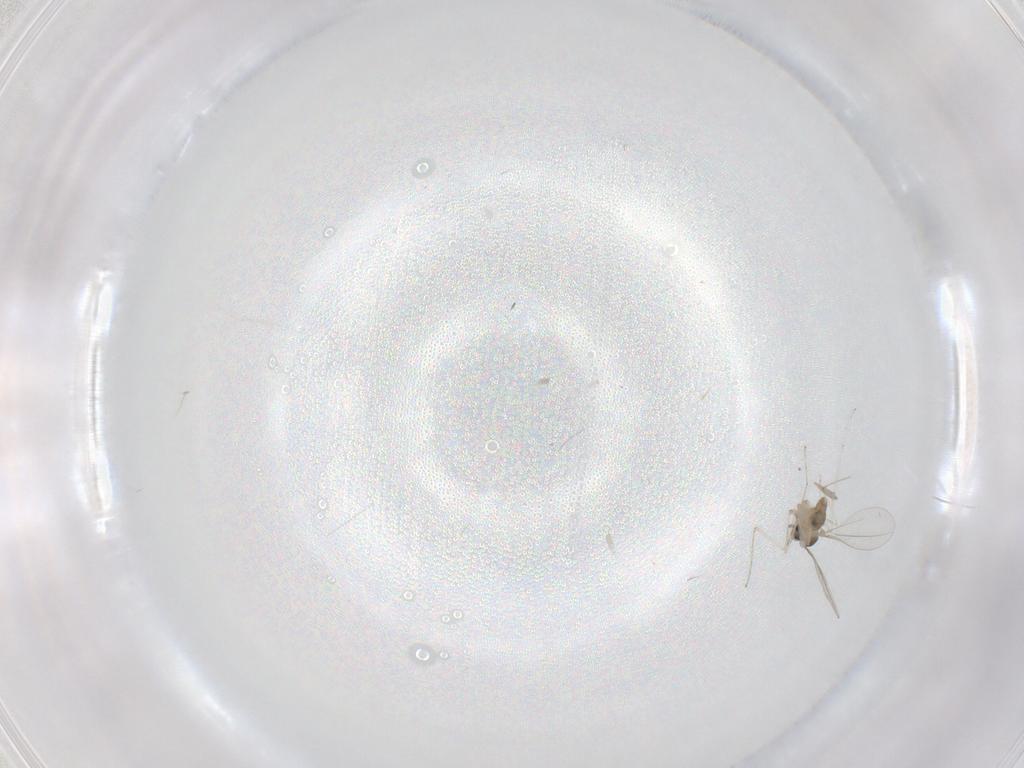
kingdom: Animalia
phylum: Arthropoda
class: Insecta
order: Diptera
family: Cecidomyiidae
